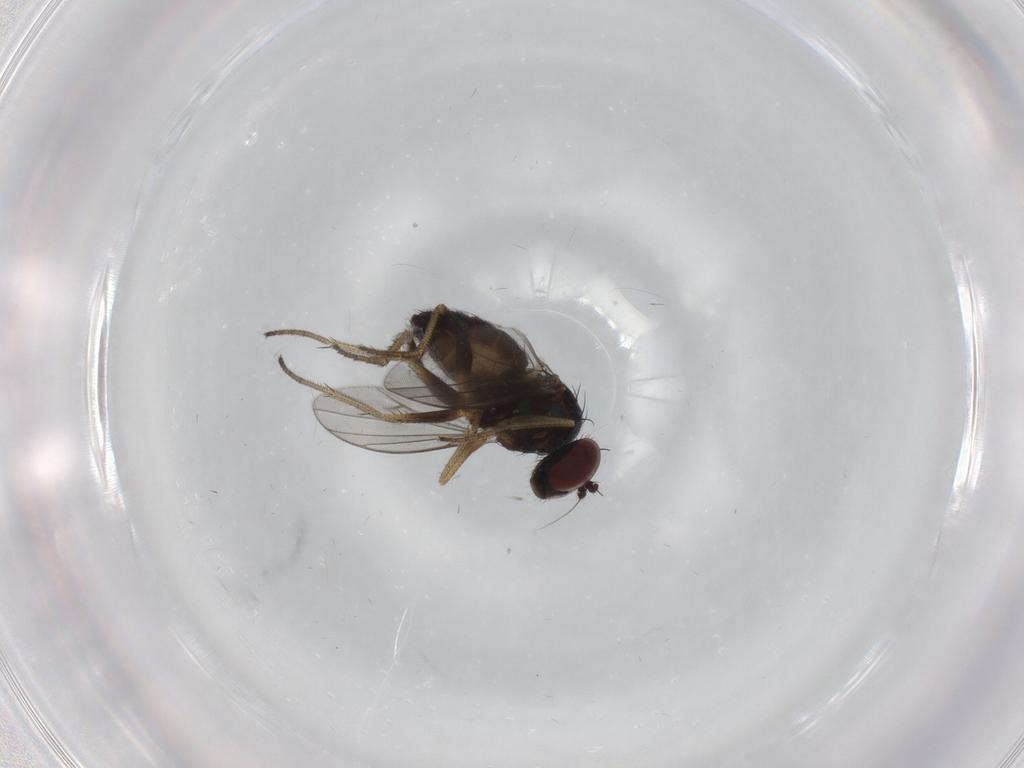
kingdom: Animalia
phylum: Arthropoda
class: Insecta
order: Diptera
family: Dolichopodidae
